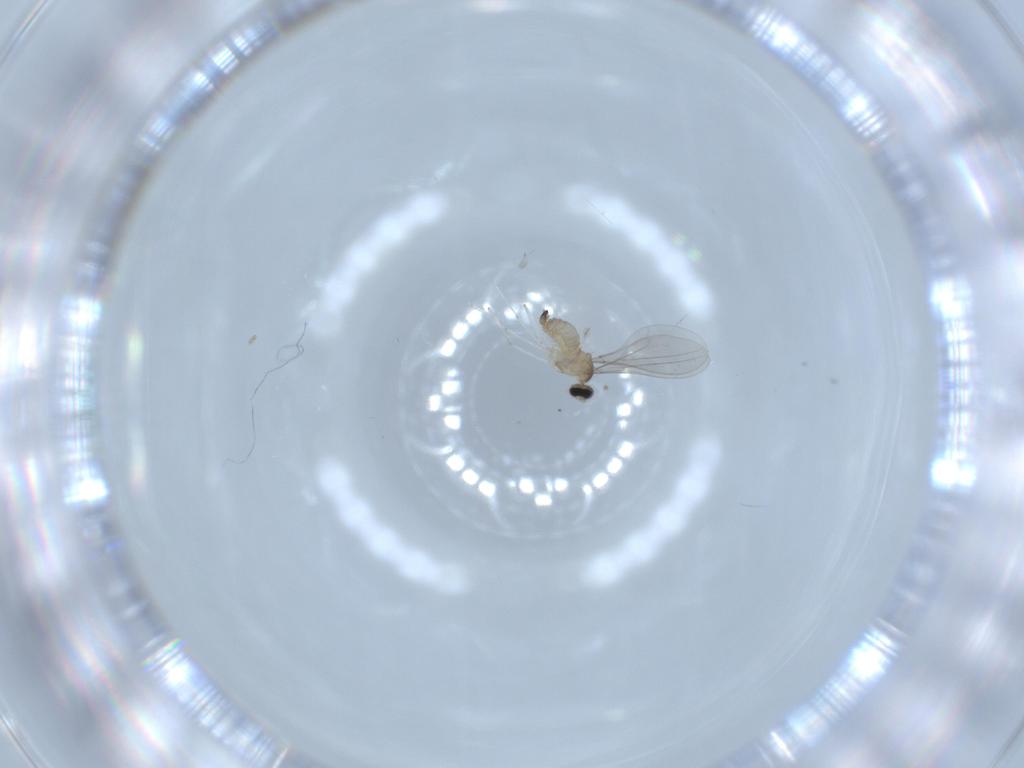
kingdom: Animalia
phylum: Arthropoda
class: Insecta
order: Diptera
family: Cecidomyiidae
